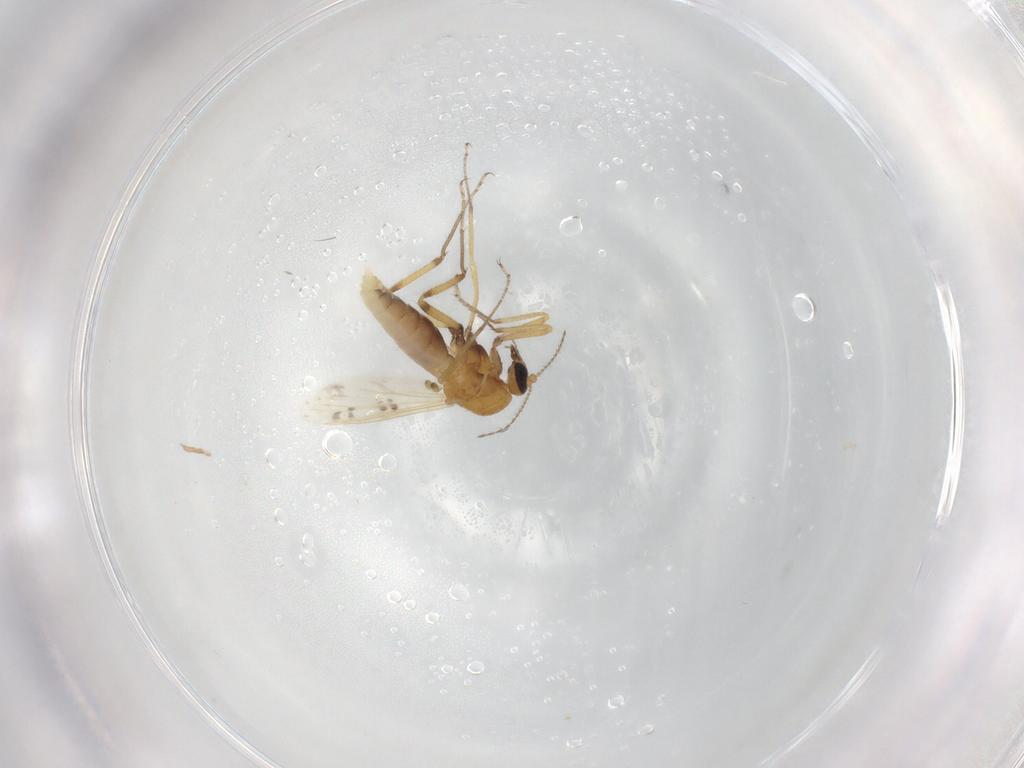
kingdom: Animalia
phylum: Arthropoda
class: Insecta
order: Diptera
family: Ceratopogonidae
